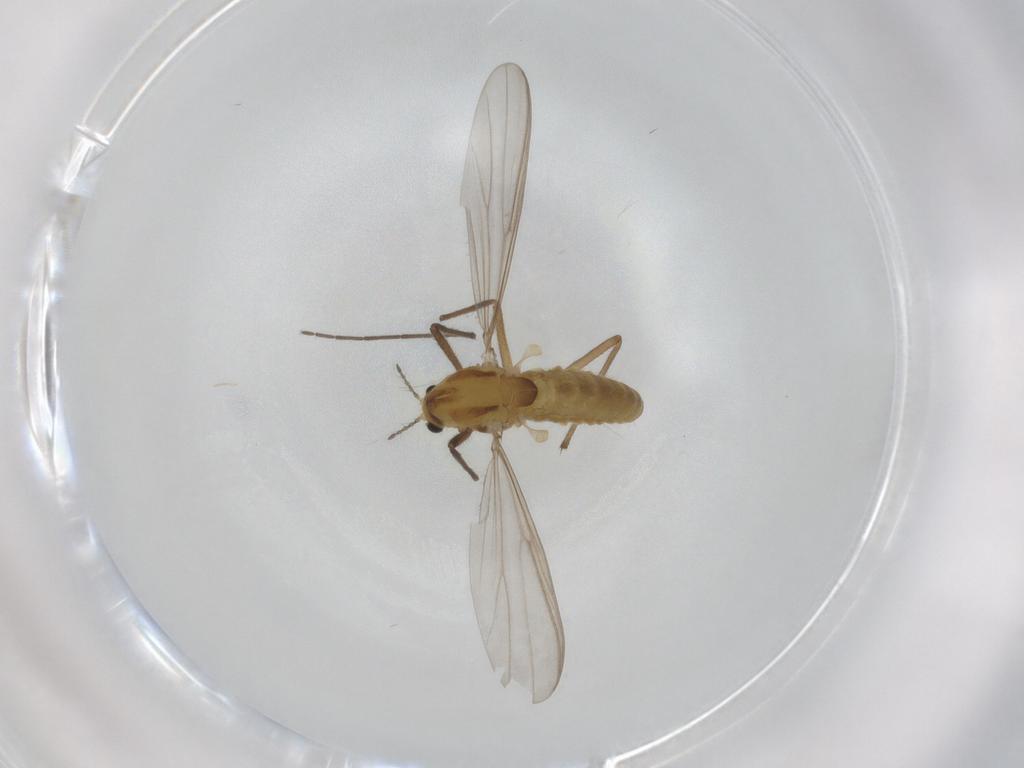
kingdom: Animalia
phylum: Arthropoda
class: Insecta
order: Diptera
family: Chironomidae
